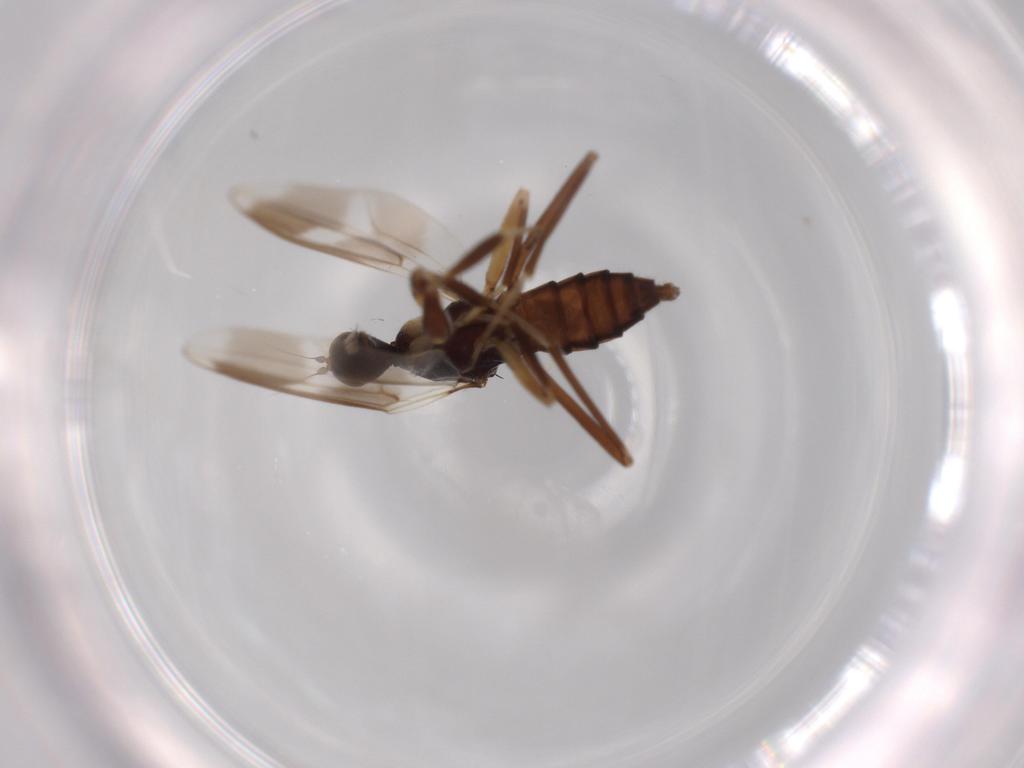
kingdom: Animalia
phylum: Arthropoda
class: Insecta
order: Diptera
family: Hybotidae
